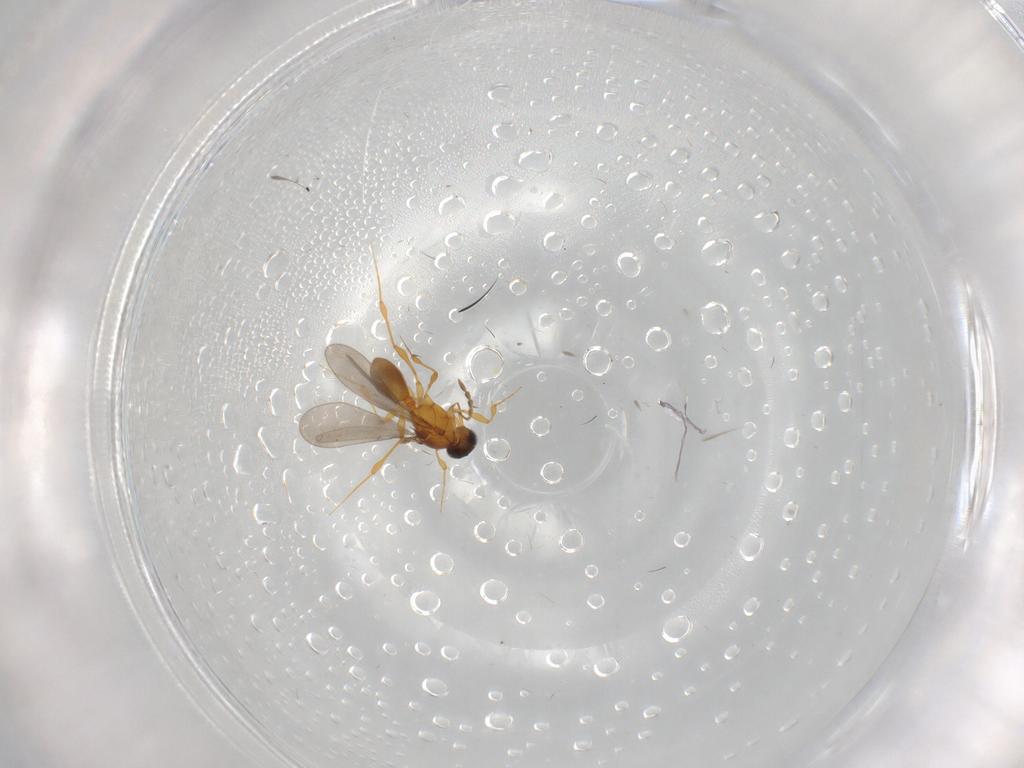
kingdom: Animalia
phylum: Arthropoda
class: Insecta
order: Hymenoptera
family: Platygastridae
